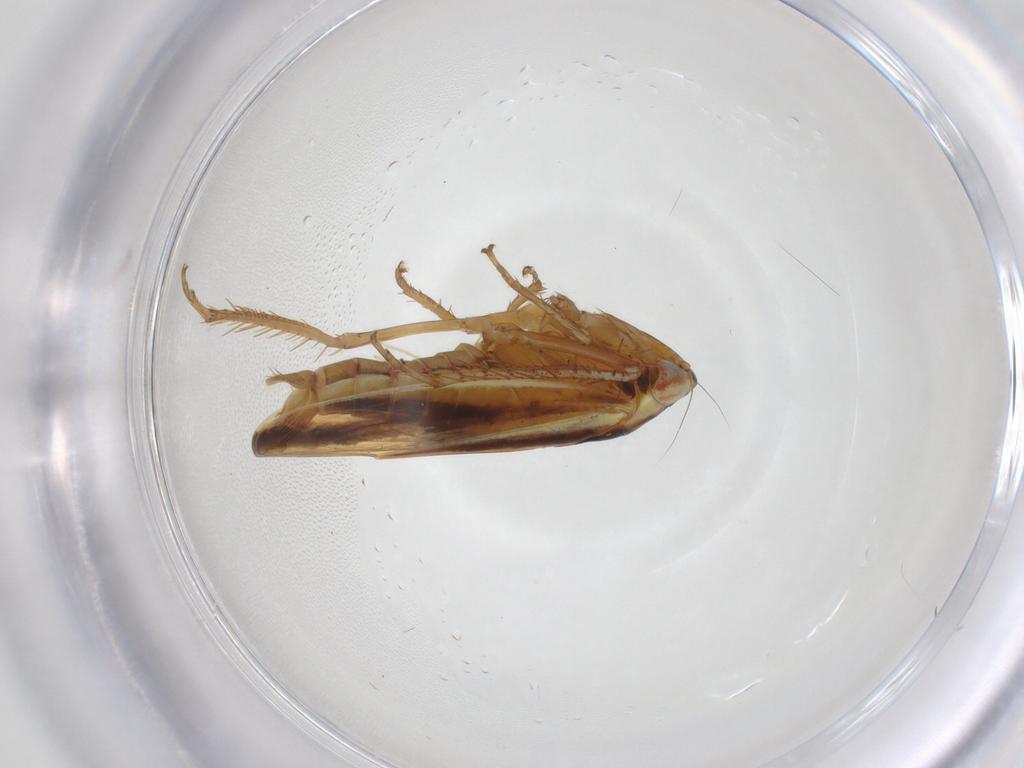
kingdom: Animalia
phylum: Arthropoda
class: Insecta
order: Hemiptera
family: Cicadellidae
